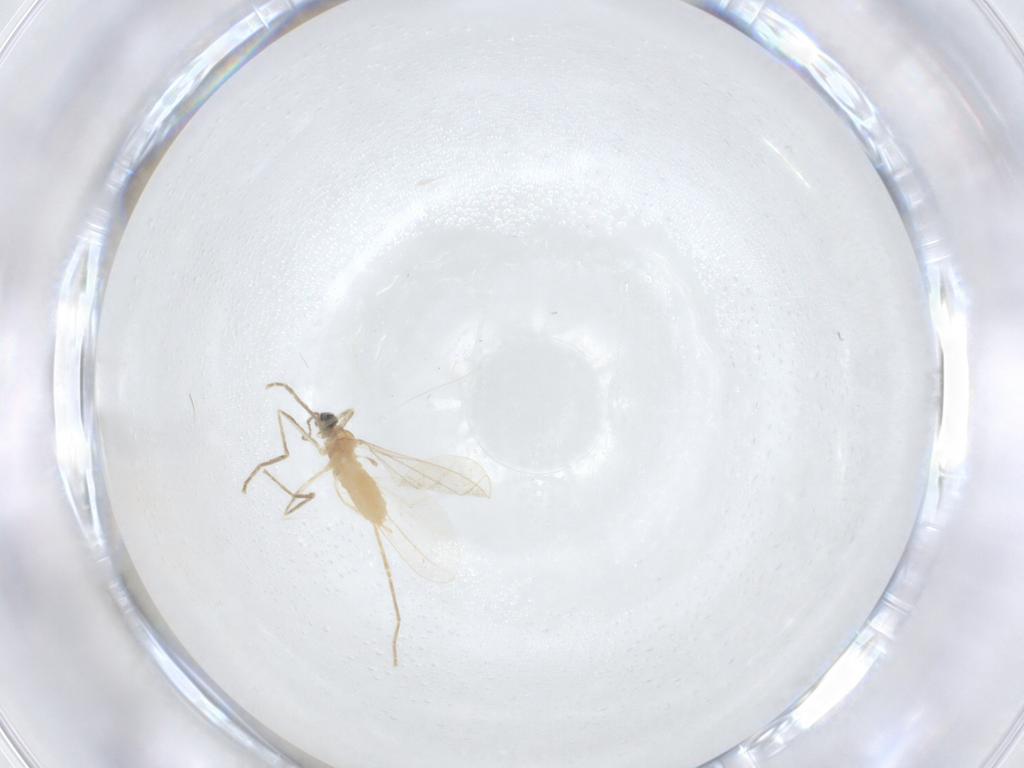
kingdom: Animalia
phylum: Arthropoda
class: Insecta
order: Diptera
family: Cecidomyiidae
